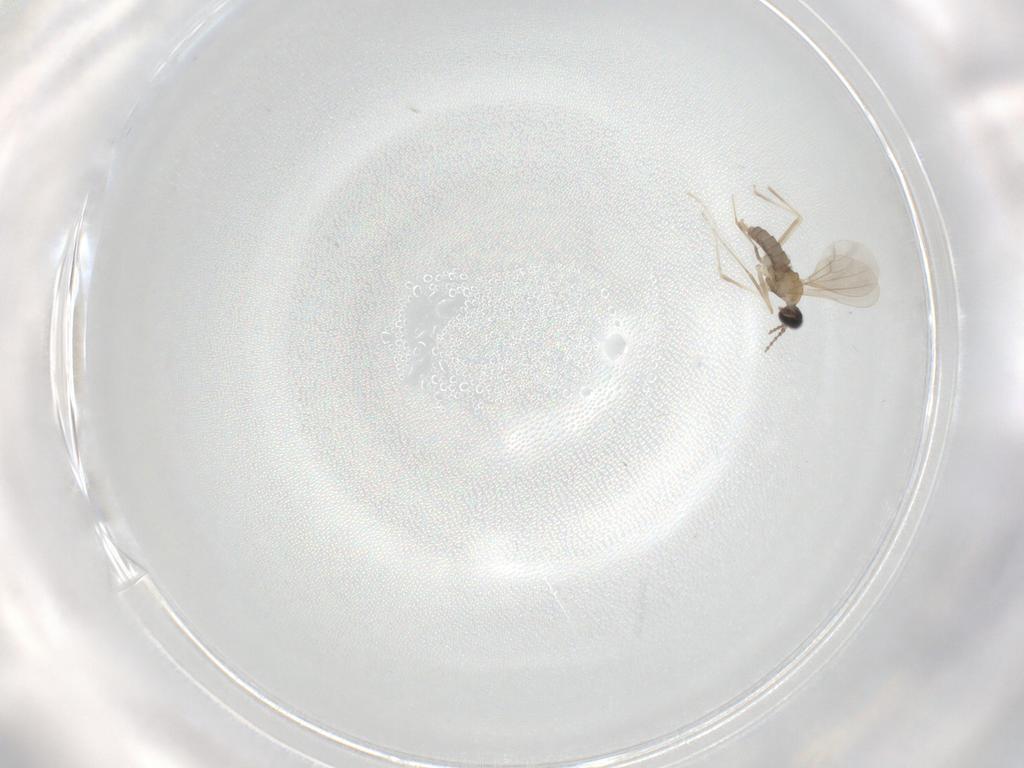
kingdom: Animalia
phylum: Arthropoda
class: Insecta
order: Diptera
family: Cecidomyiidae
